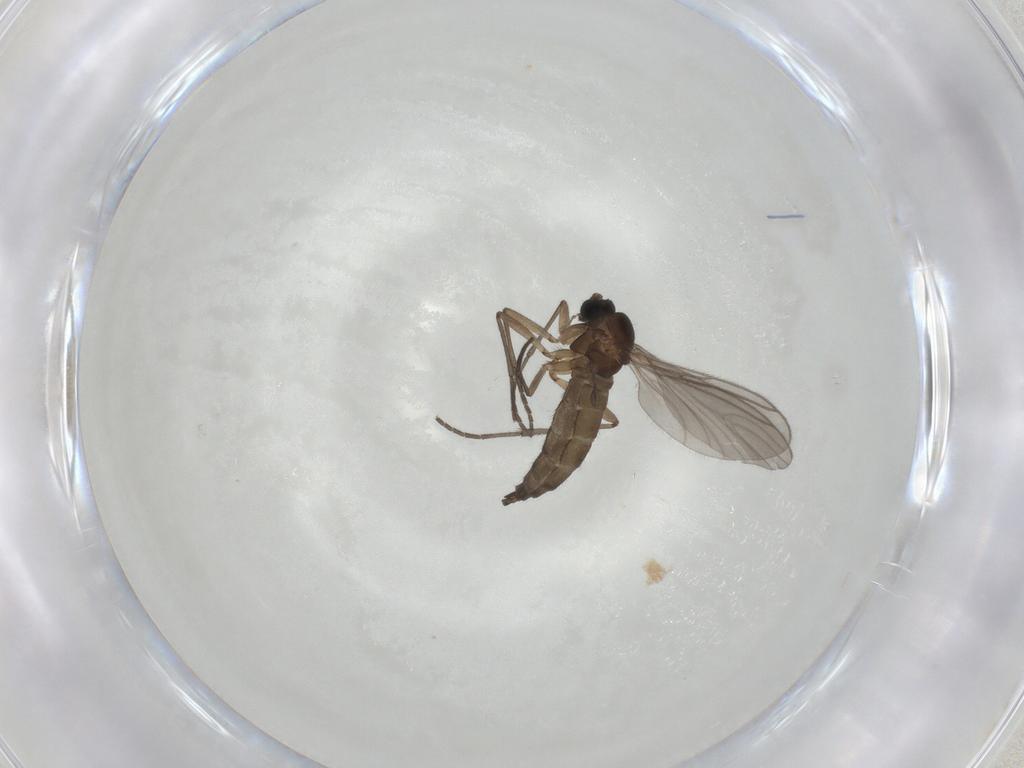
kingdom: Animalia
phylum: Arthropoda
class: Insecta
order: Diptera
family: Sciaridae
